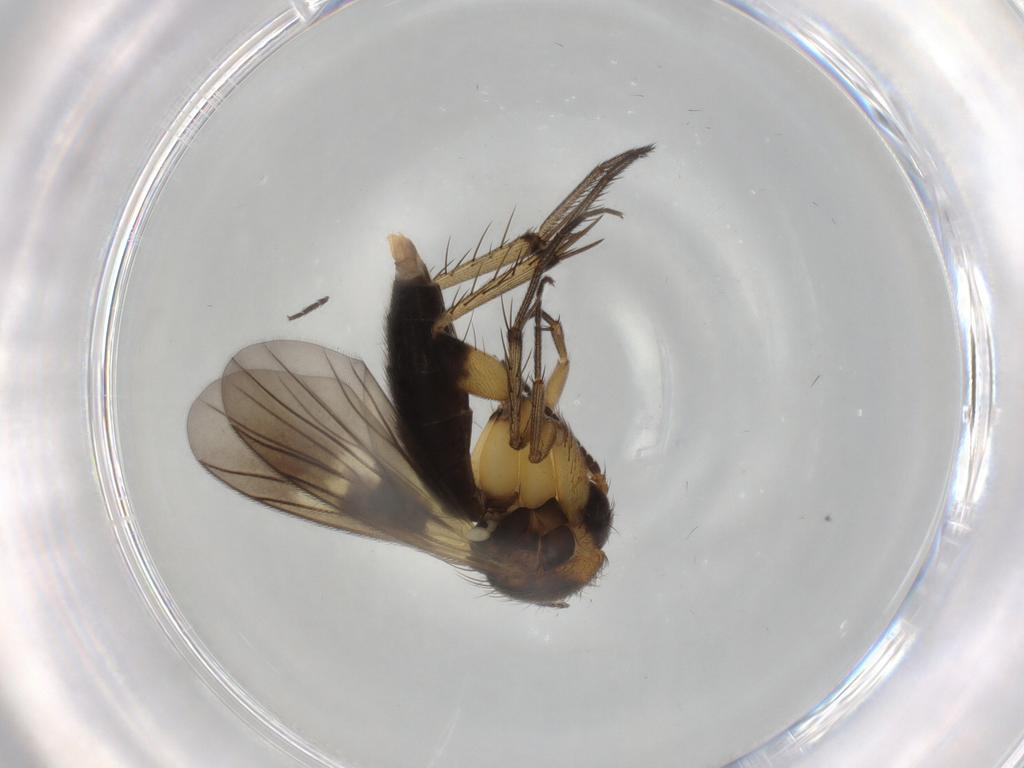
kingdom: Animalia
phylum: Arthropoda
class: Insecta
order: Diptera
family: Mycetophilidae
